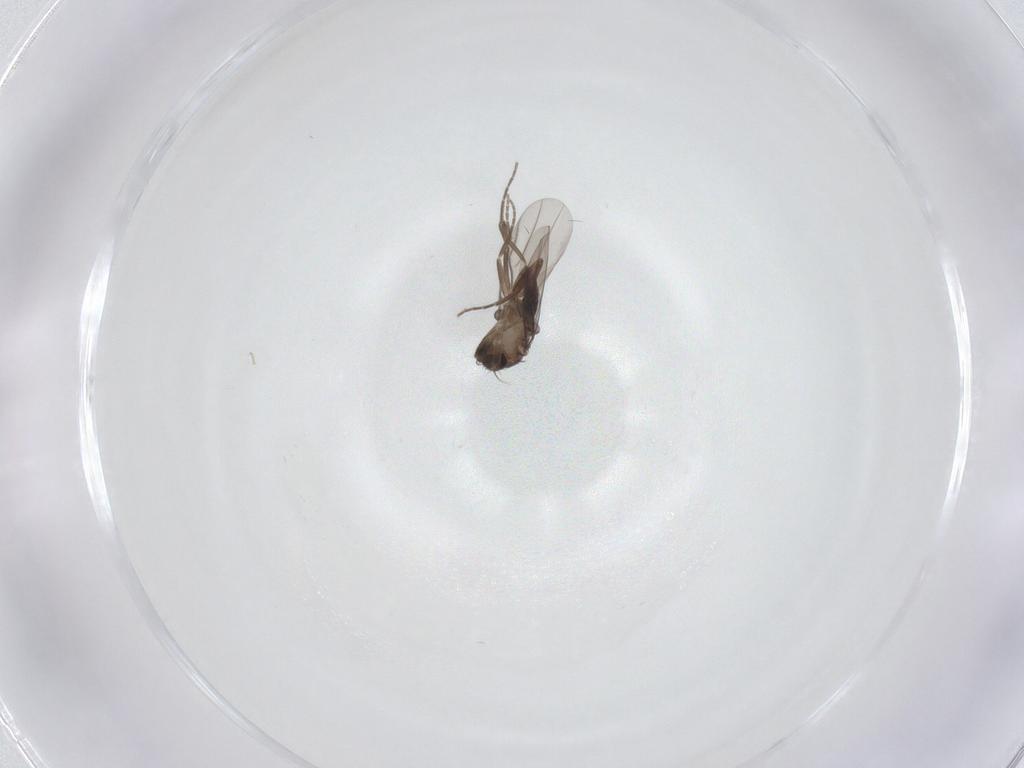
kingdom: Animalia
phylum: Arthropoda
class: Insecta
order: Diptera
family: Phoridae
